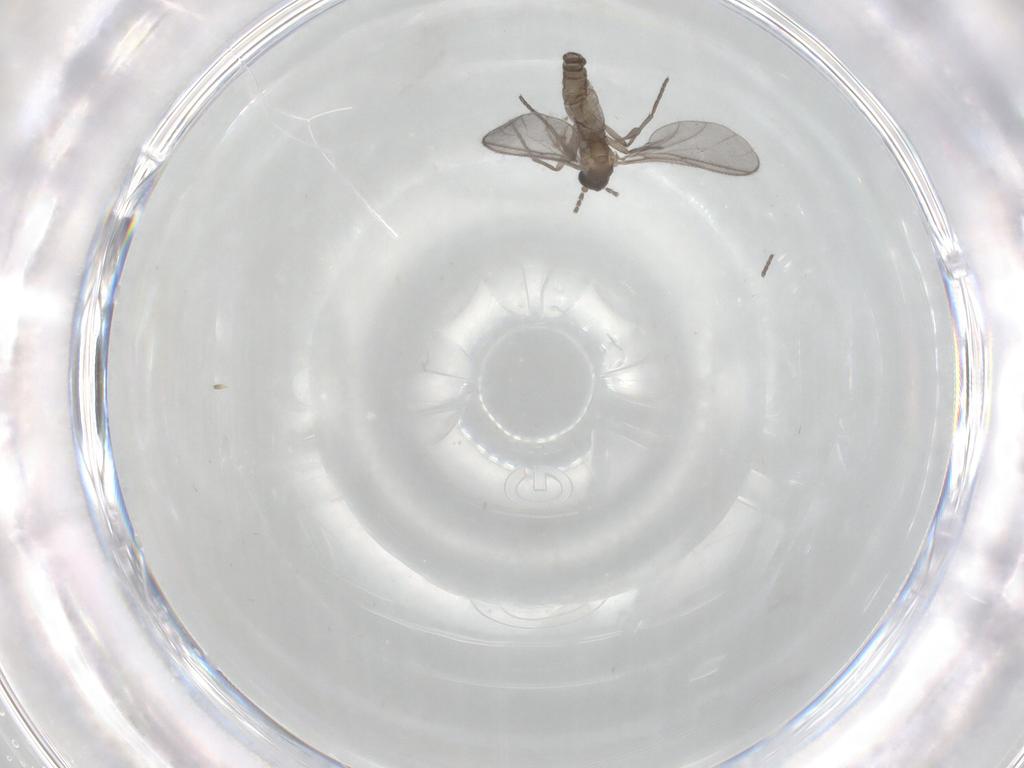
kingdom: Animalia
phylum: Arthropoda
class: Insecta
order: Diptera
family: Sciaridae
